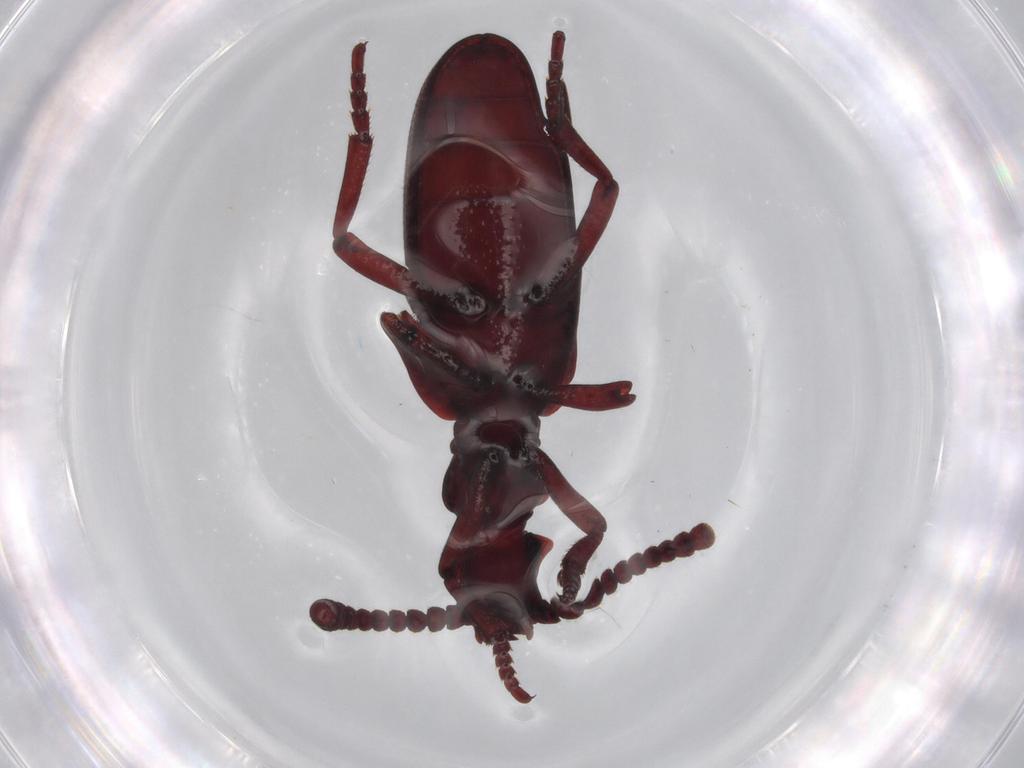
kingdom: Animalia
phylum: Arthropoda
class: Insecta
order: Coleoptera
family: Anthicidae
